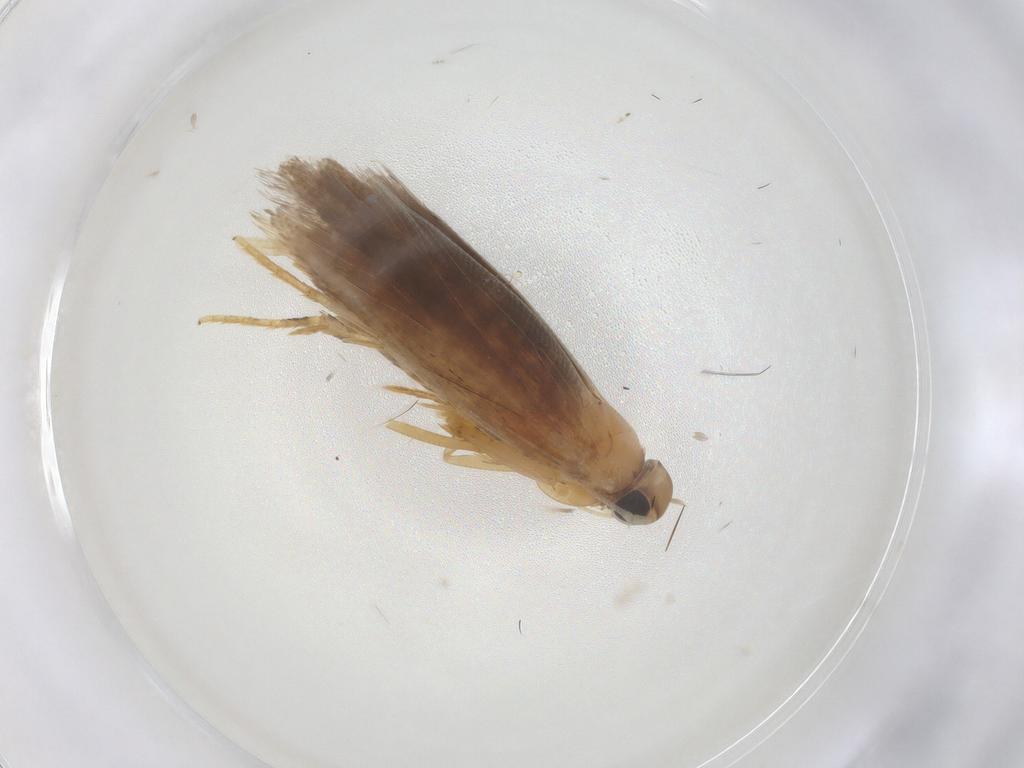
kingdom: Animalia
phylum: Arthropoda
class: Insecta
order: Lepidoptera
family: Gelechiidae
